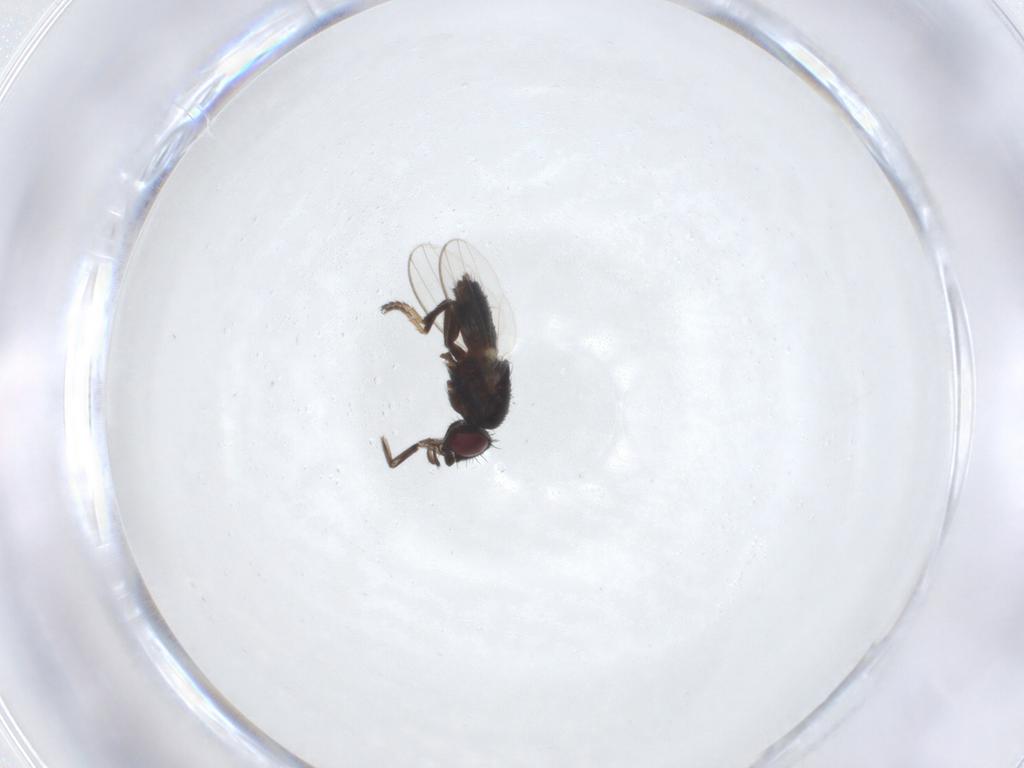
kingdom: Animalia
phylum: Arthropoda
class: Insecta
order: Diptera
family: Milichiidae
